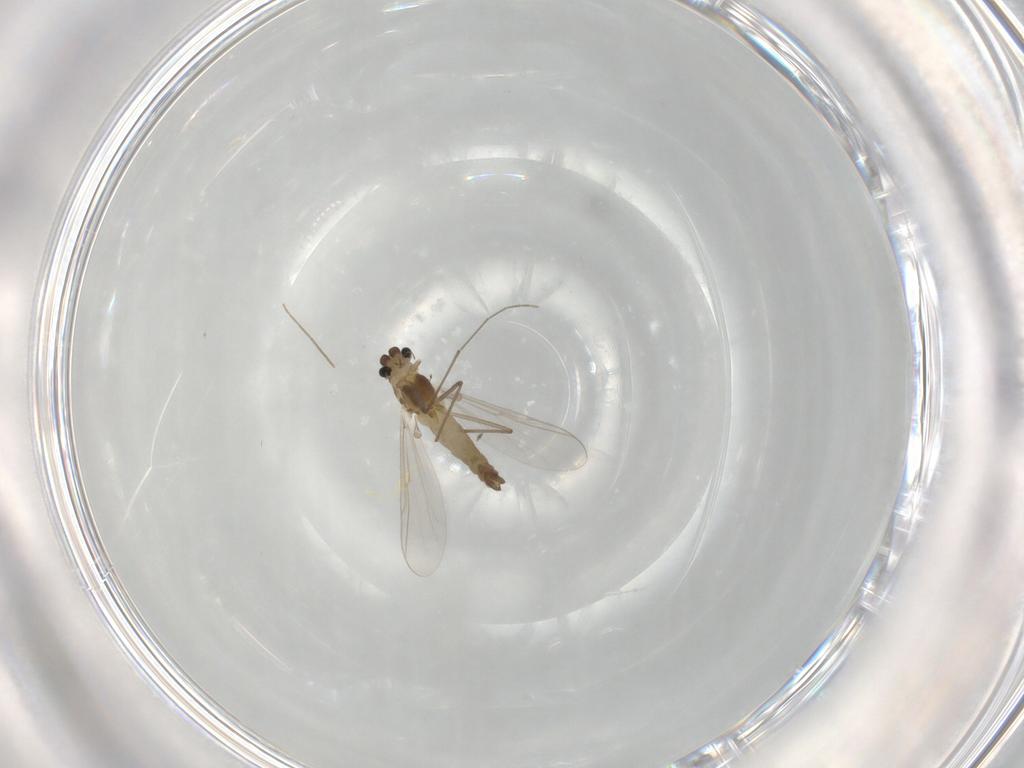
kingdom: Animalia
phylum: Arthropoda
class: Insecta
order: Diptera
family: Chironomidae
